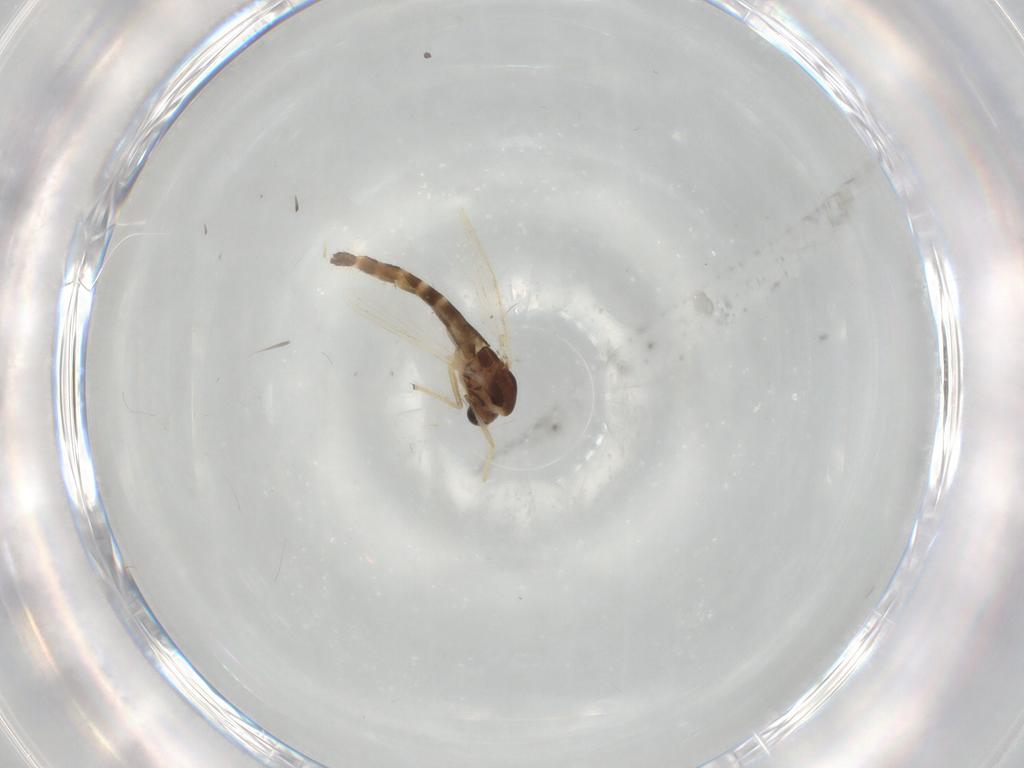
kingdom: Animalia
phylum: Arthropoda
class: Insecta
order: Diptera
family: Chironomidae
